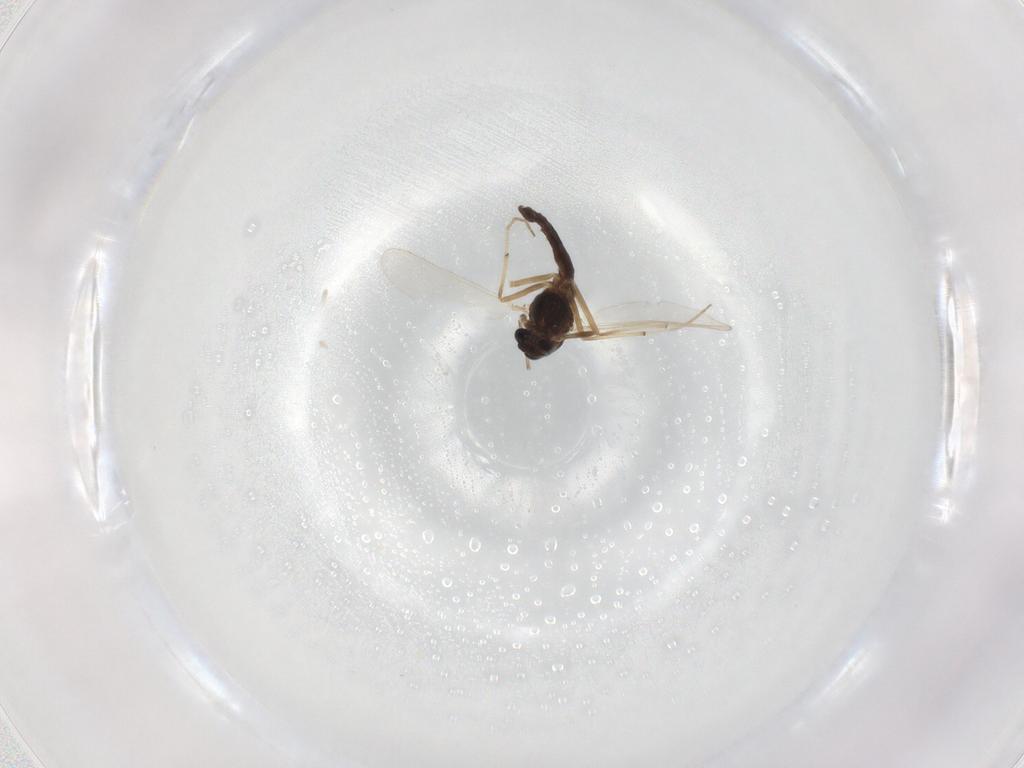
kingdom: Animalia
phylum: Arthropoda
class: Insecta
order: Diptera
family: Chironomidae
